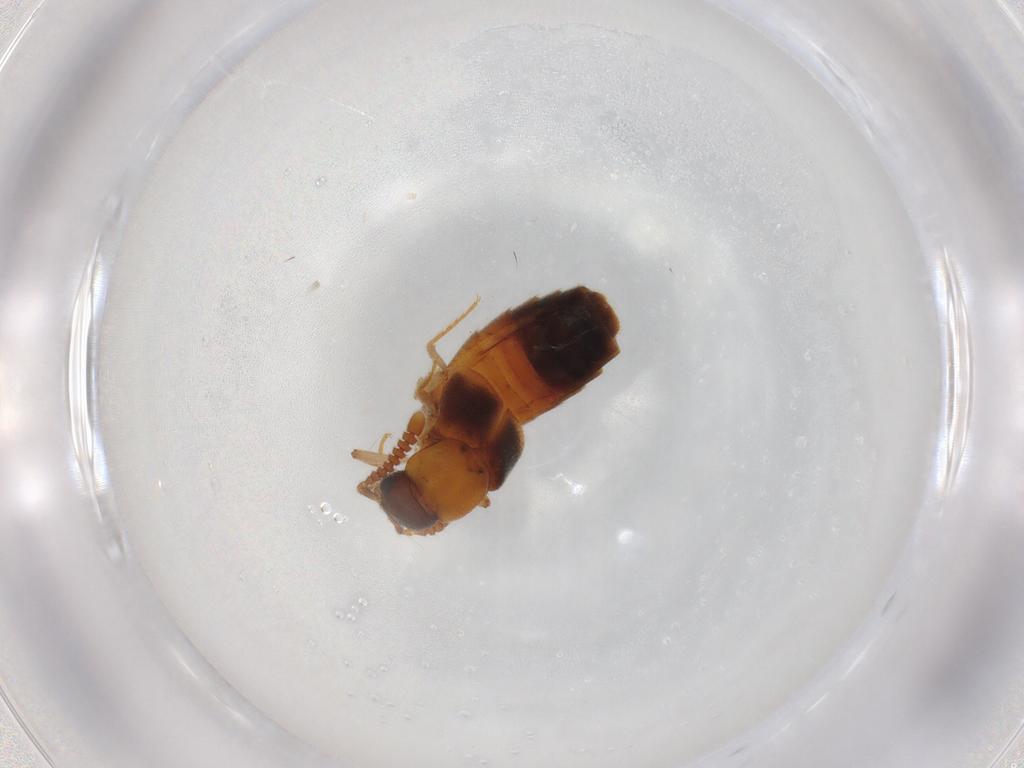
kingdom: Animalia
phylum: Arthropoda
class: Insecta
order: Coleoptera
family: Staphylinidae
